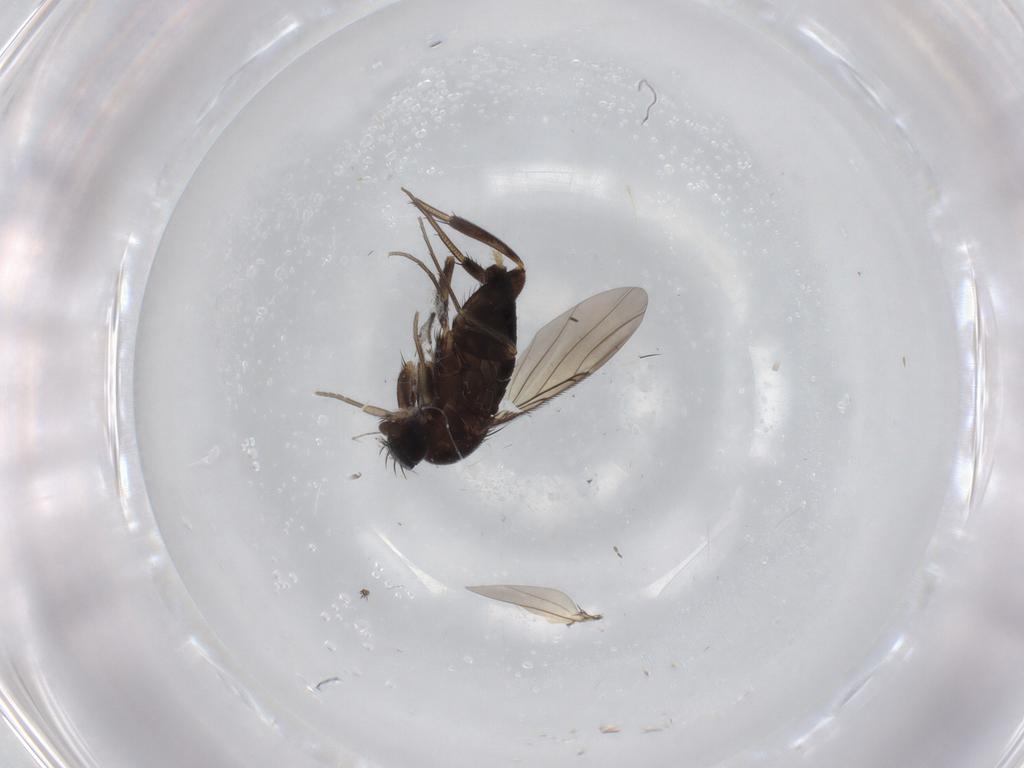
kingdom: Animalia
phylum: Arthropoda
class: Insecta
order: Diptera
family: Phoridae
